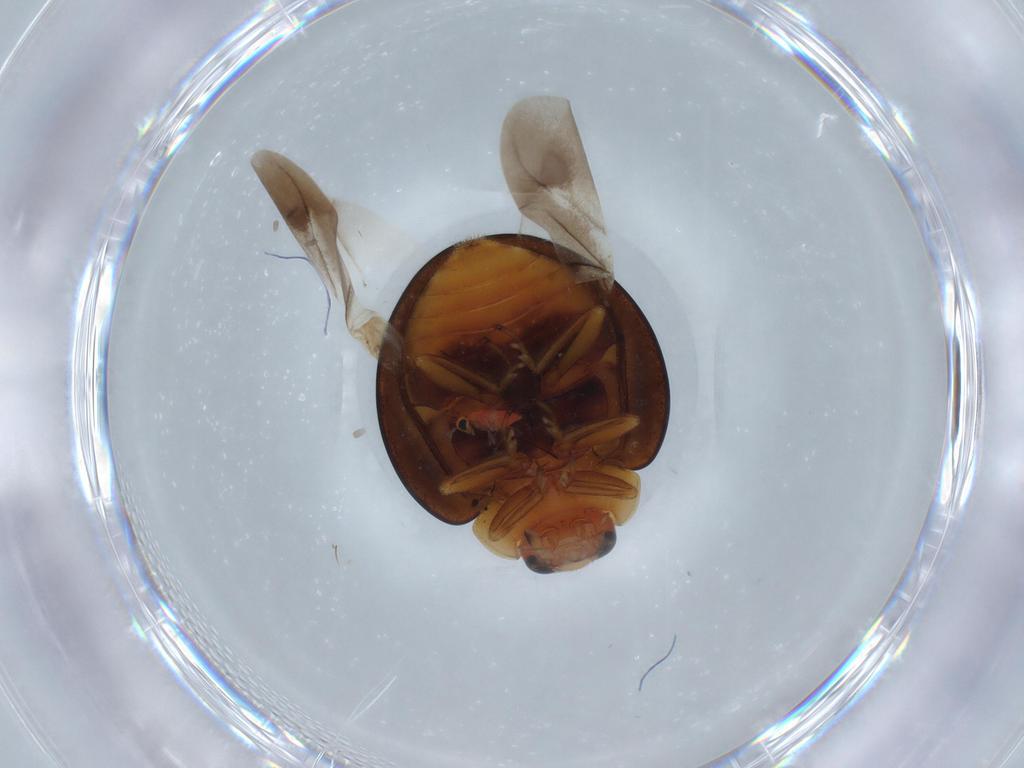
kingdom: Animalia
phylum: Arthropoda
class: Insecta
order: Coleoptera
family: Coccinellidae
